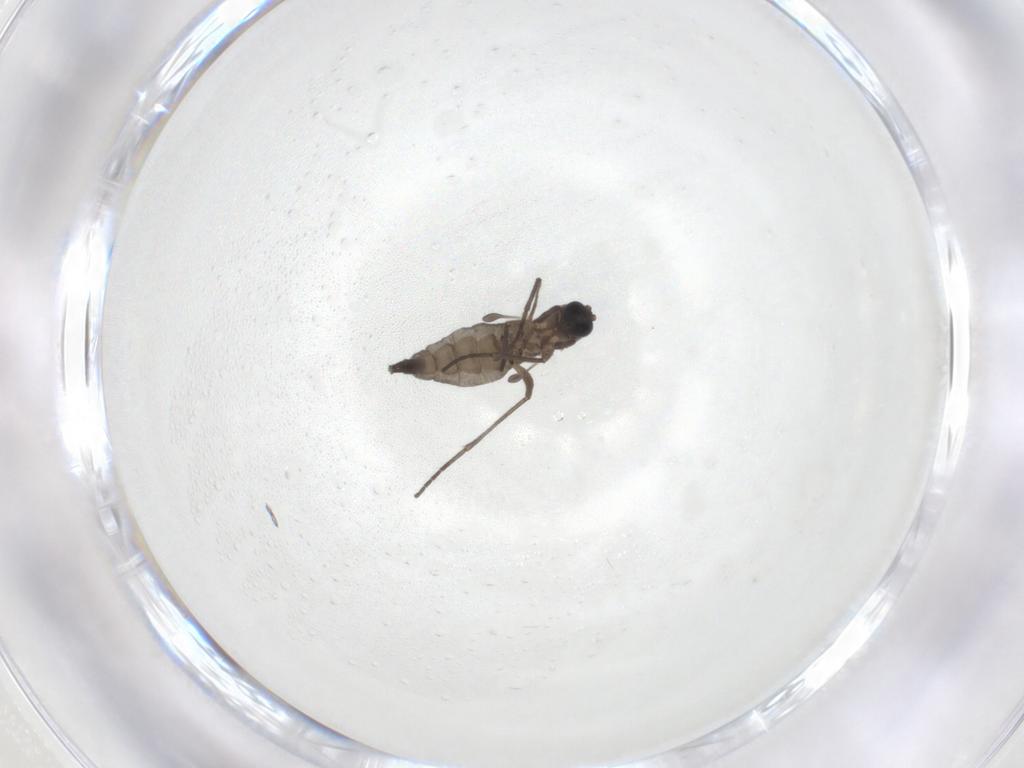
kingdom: Animalia
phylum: Arthropoda
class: Insecta
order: Diptera
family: Sciaridae
